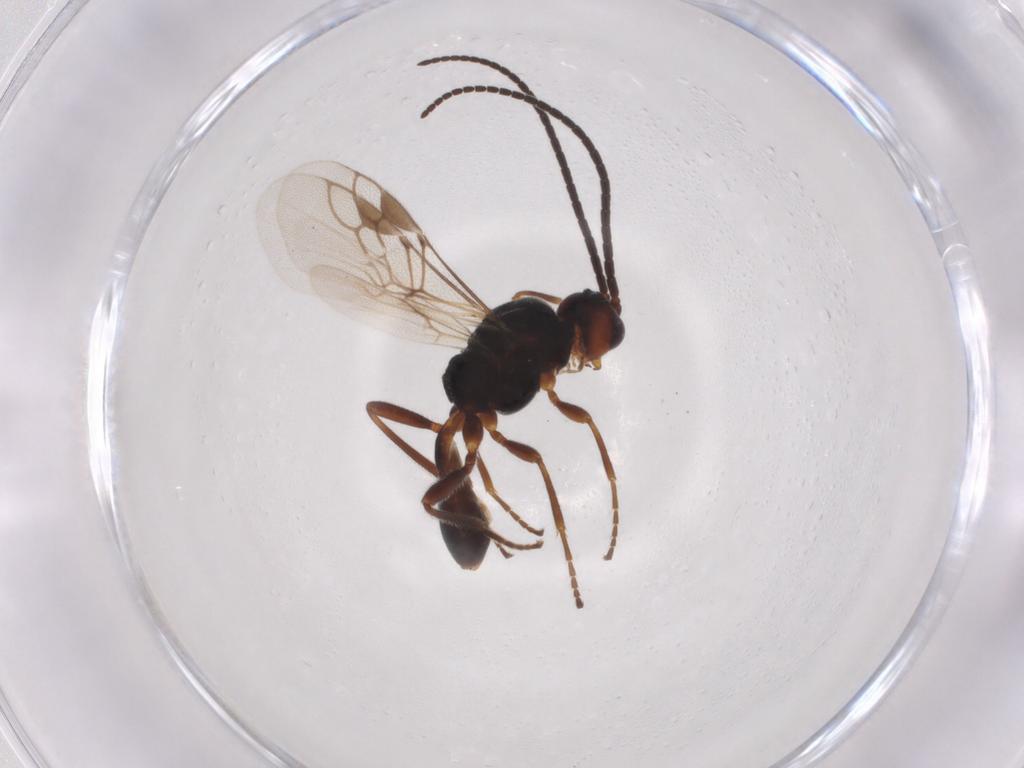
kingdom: Animalia
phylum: Arthropoda
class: Insecta
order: Hymenoptera
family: Braconidae
